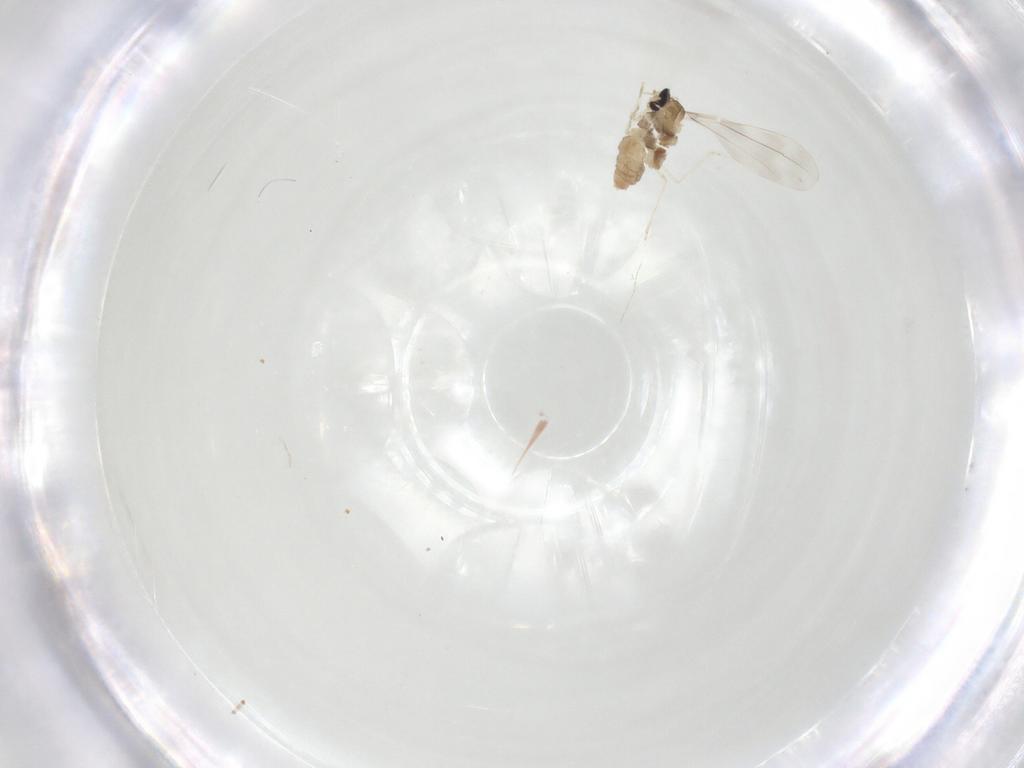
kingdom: Animalia
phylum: Arthropoda
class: Insecta
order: Diptera
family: Cecidomyiidae
